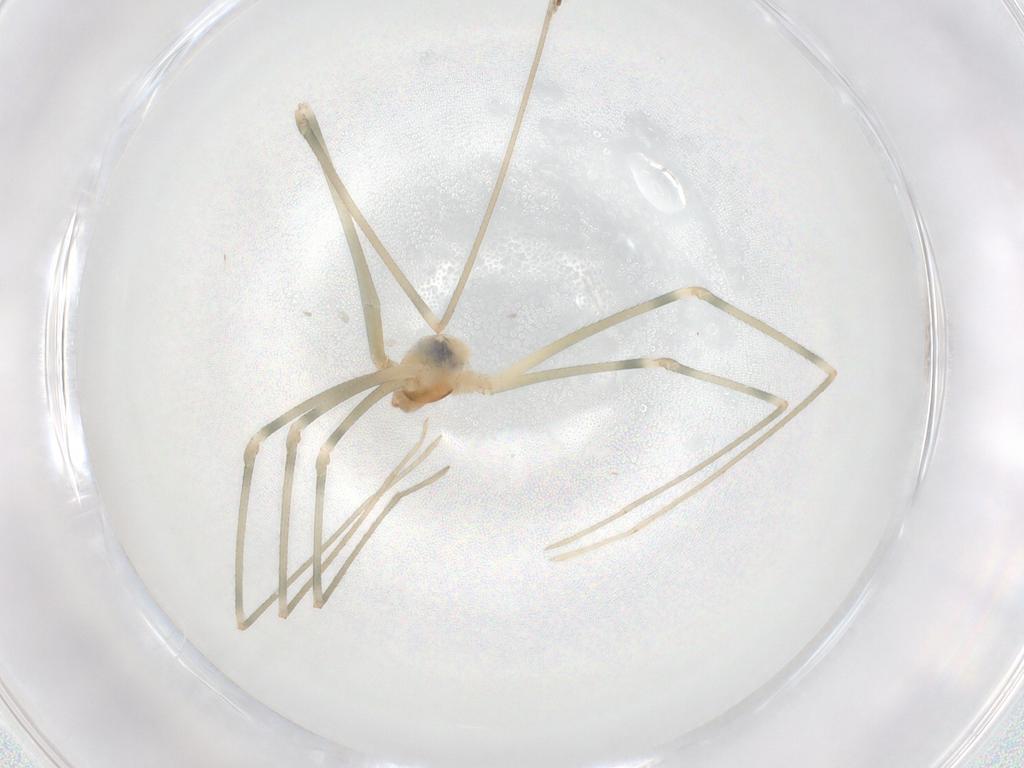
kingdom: Animalia
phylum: Arthropoda
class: Arachnida
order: Araneae
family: Pholcidae
